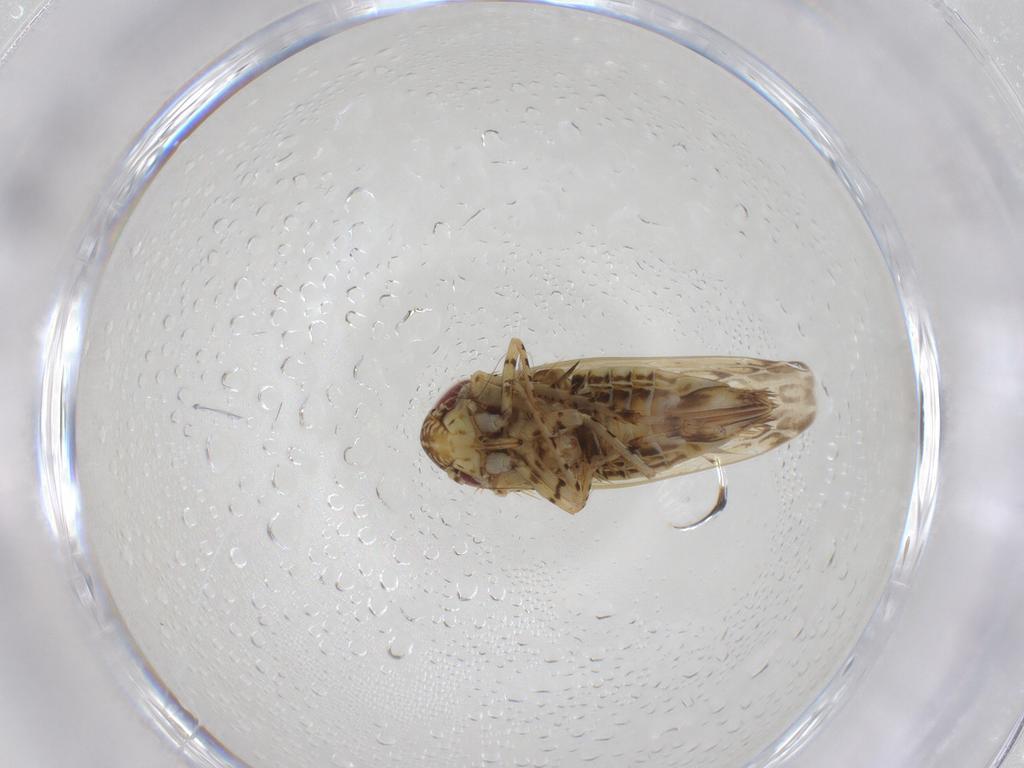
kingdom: Animalia
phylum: Arthropoda
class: Insecta
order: Hemiptera
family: Cicadellidae
